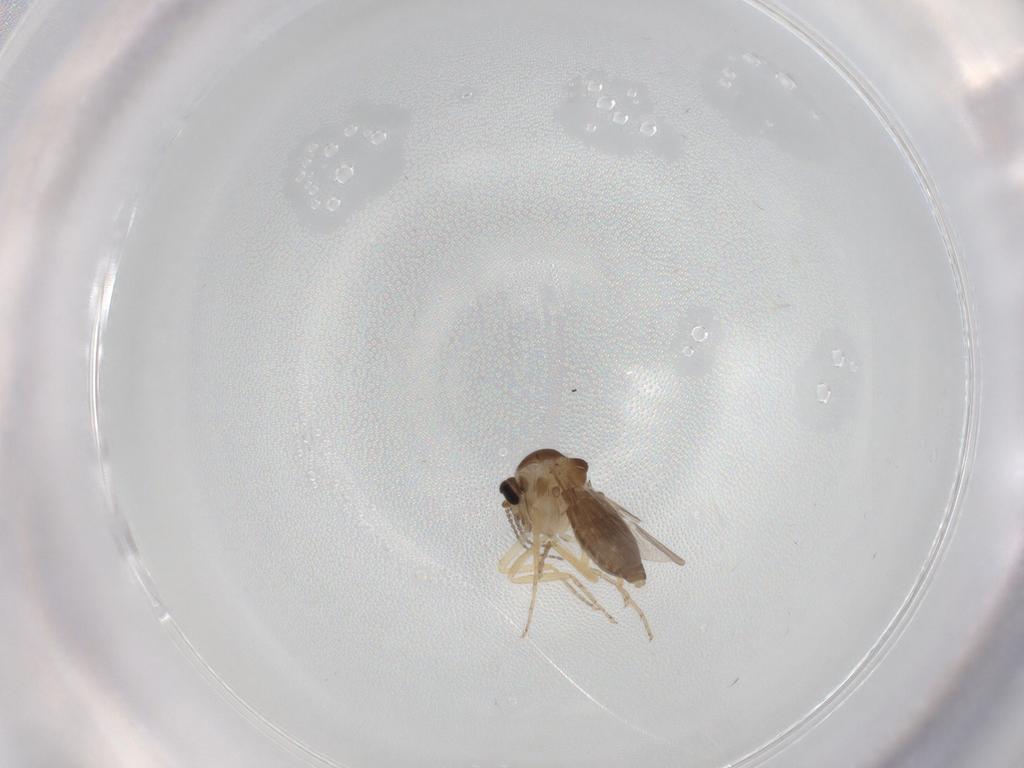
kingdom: Animalia
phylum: Arthropoda
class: Insecta
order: Diptera
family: Ceratopogonidae
